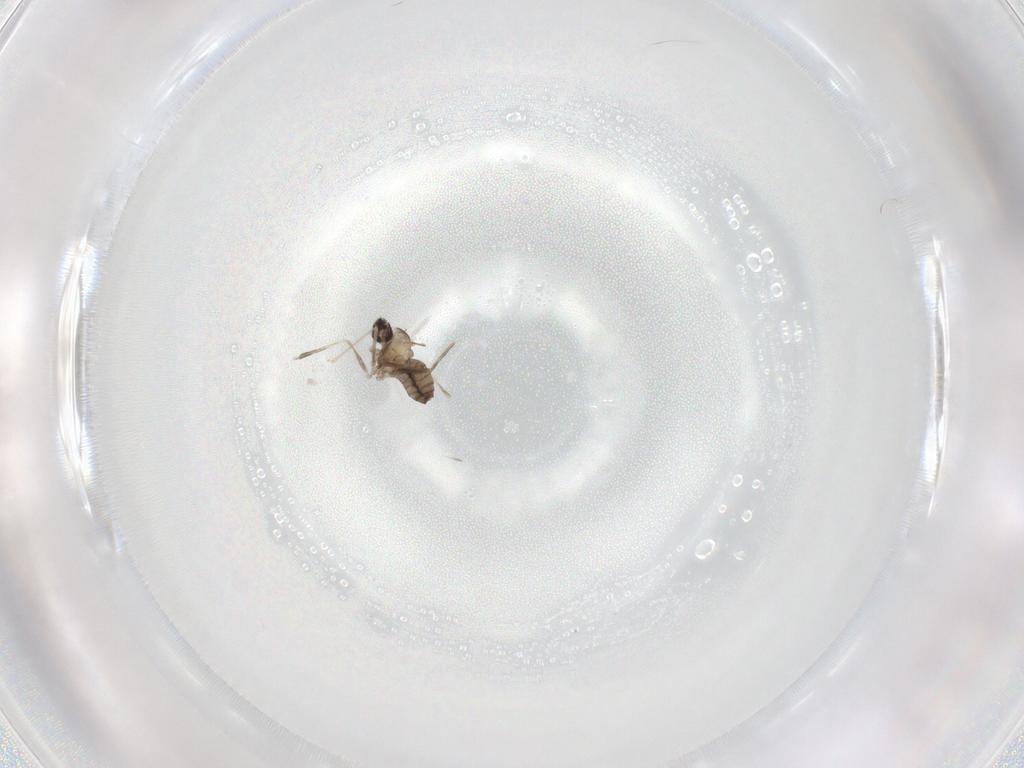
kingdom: Animalia
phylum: Arthropoda
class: Insecta
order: Diptera
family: Cecidomyiidae
